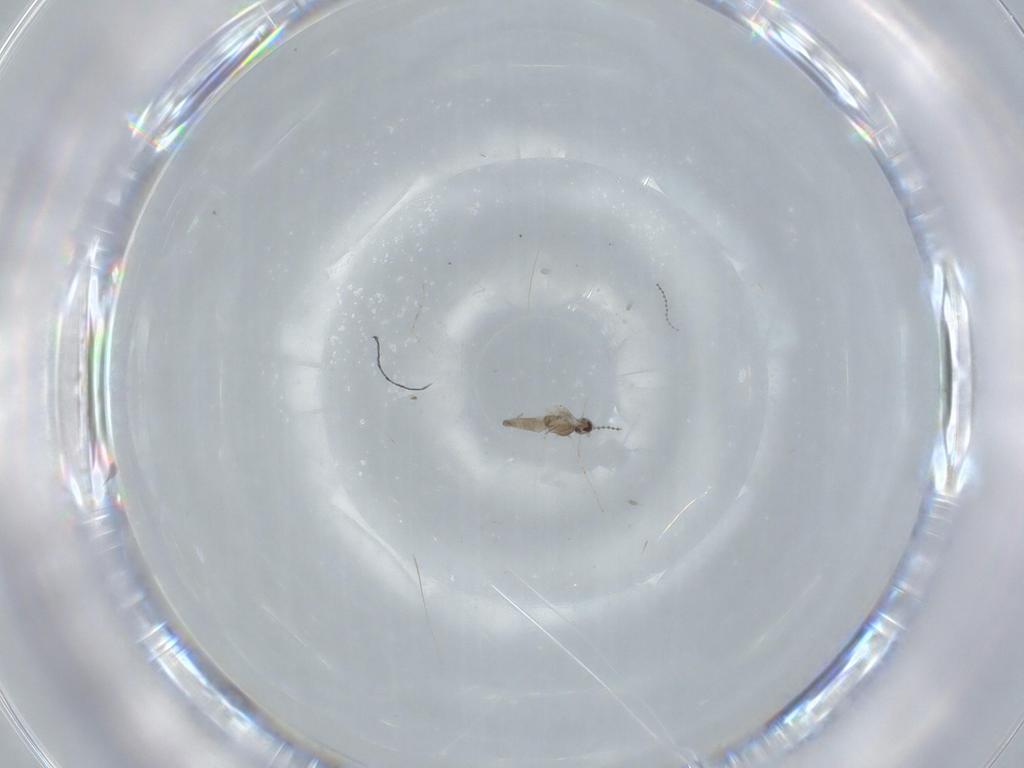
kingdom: Animalia
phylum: Arthropoda
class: Insecta
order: Diptera
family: Cecidomyiidae
